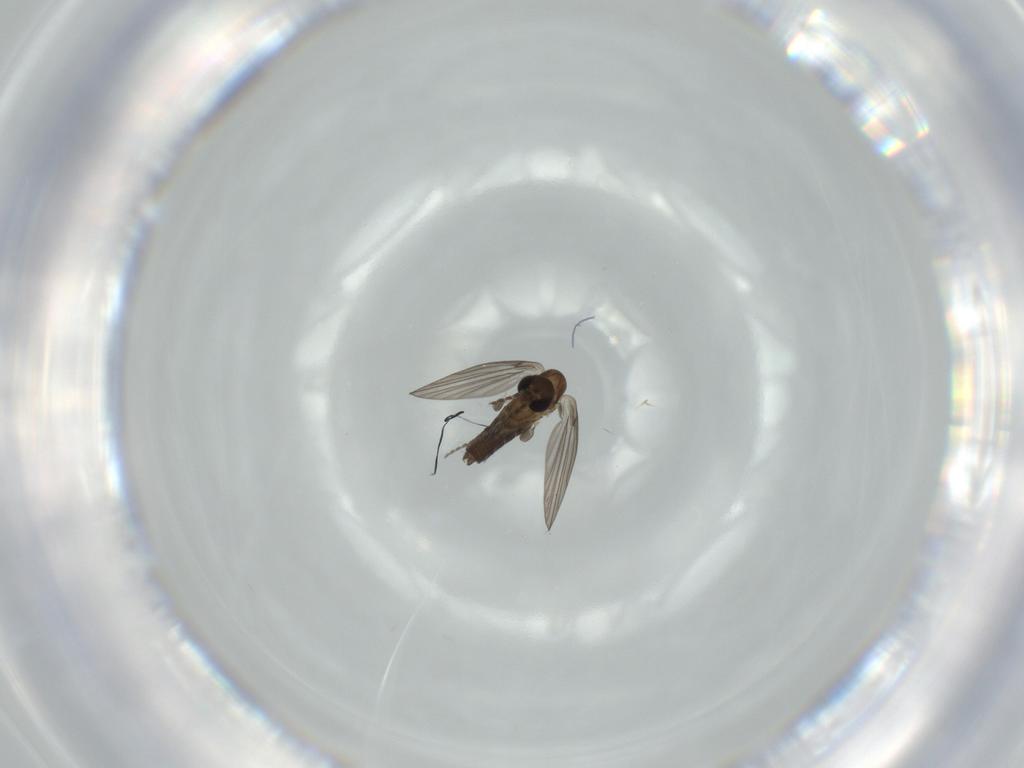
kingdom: Animalia
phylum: Arthropoda
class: Insecta
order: Diptera
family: Psychodidae
